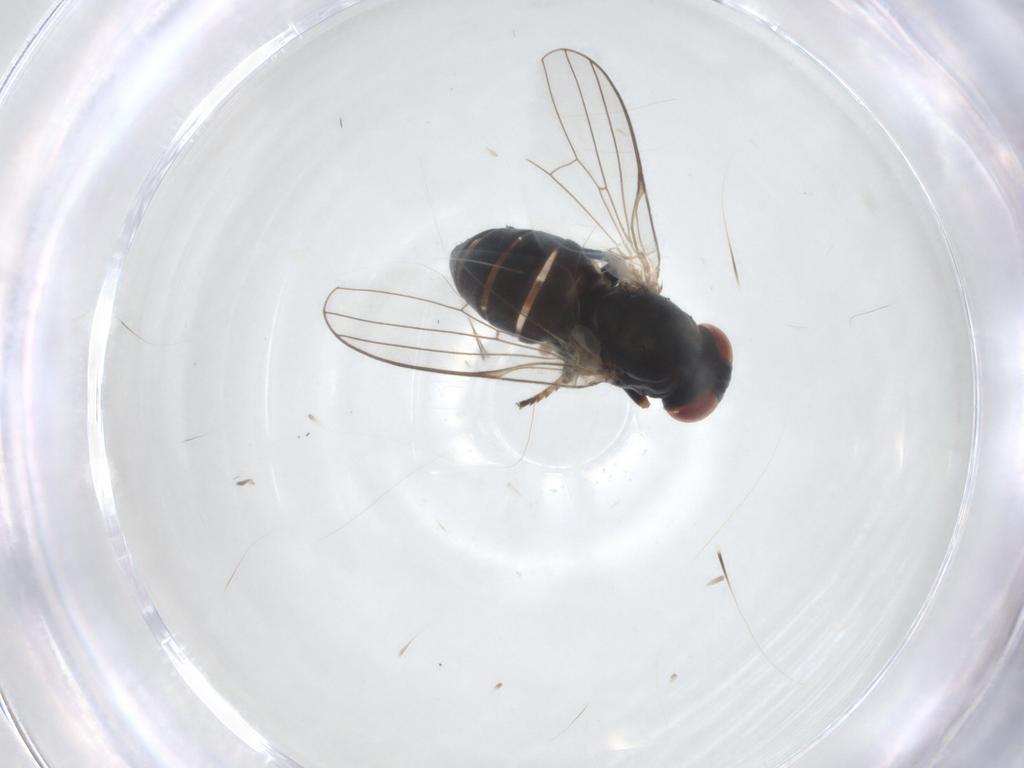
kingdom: Animalia
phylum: Arthropoda
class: Insecta
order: Diptera
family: Chamaemyiidae
